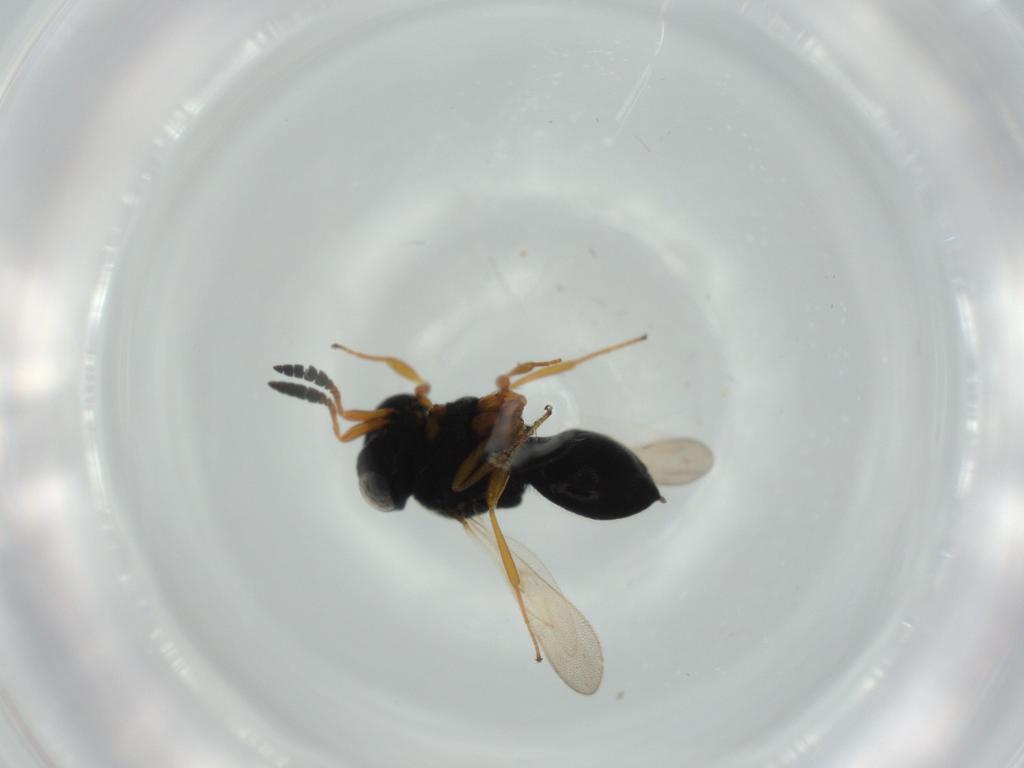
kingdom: Animalia
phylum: Arthropoda
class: Insecta
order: Hymenoptera
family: Scelionidae
